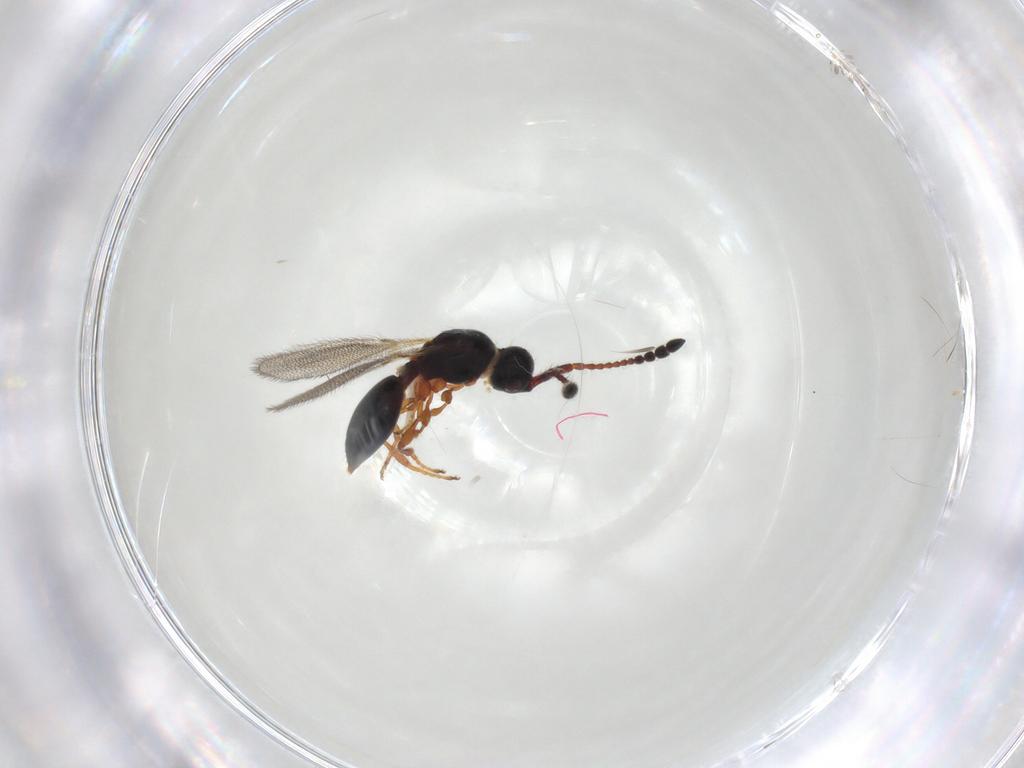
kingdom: Animalia
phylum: Arthropoda
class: Insecta
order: Hymenoptera
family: Diapriidae
